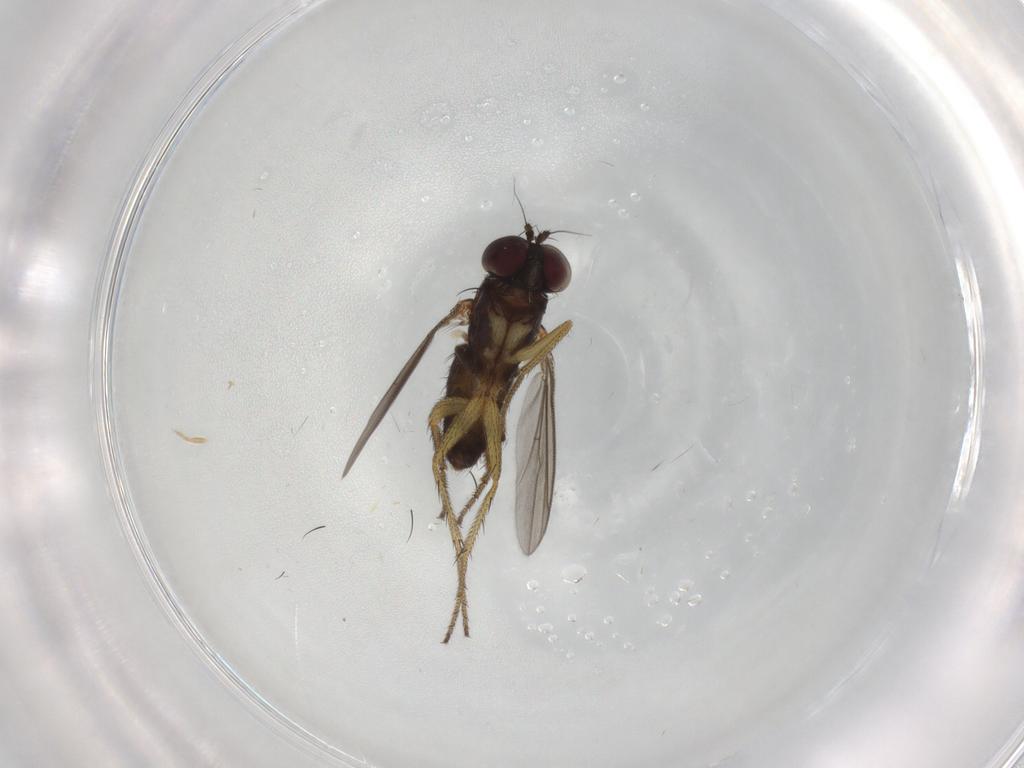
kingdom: Animalia
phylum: Arthropoda
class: Insecta
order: Diptera
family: Dolichopodidae
